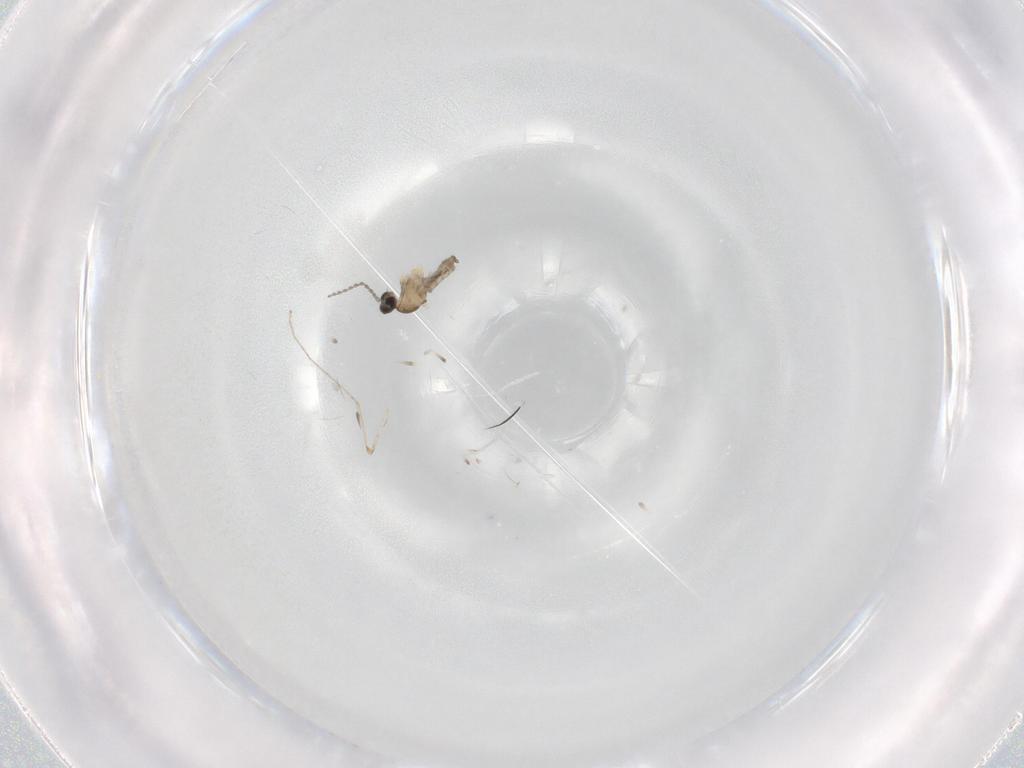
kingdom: Animalia
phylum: Arthropoda
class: Insecta
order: Diptera
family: Cecidomyiidae
